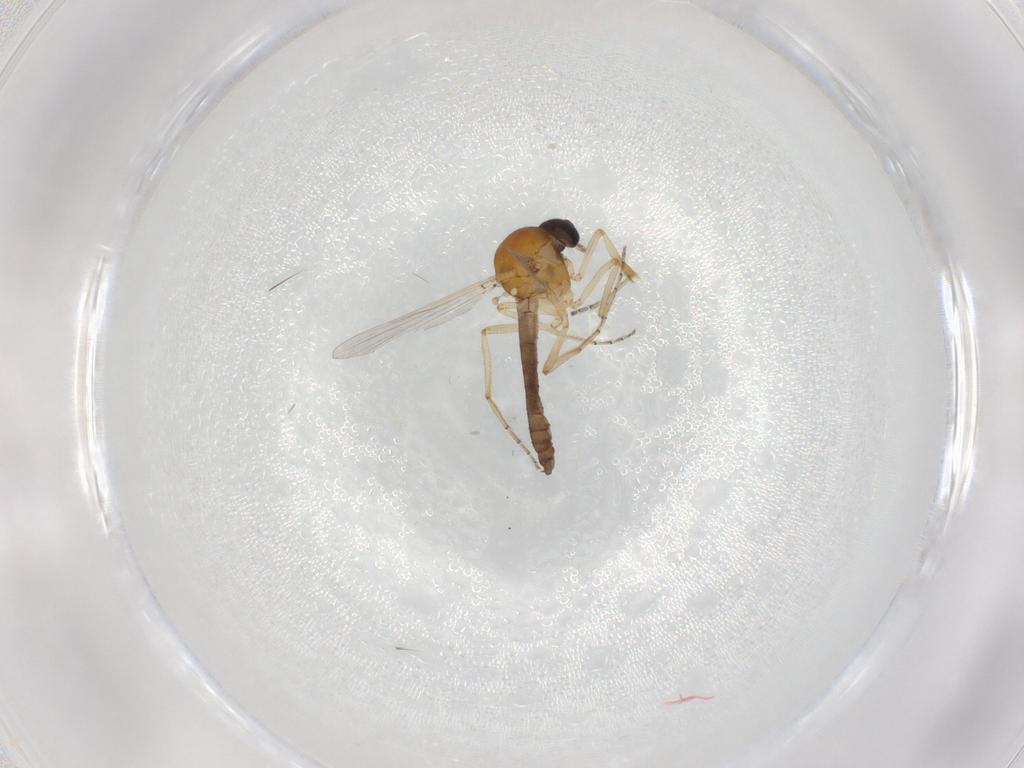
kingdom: Animalia
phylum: Arthropoda
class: Insecta
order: Diptera
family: Ceratopogonidae
